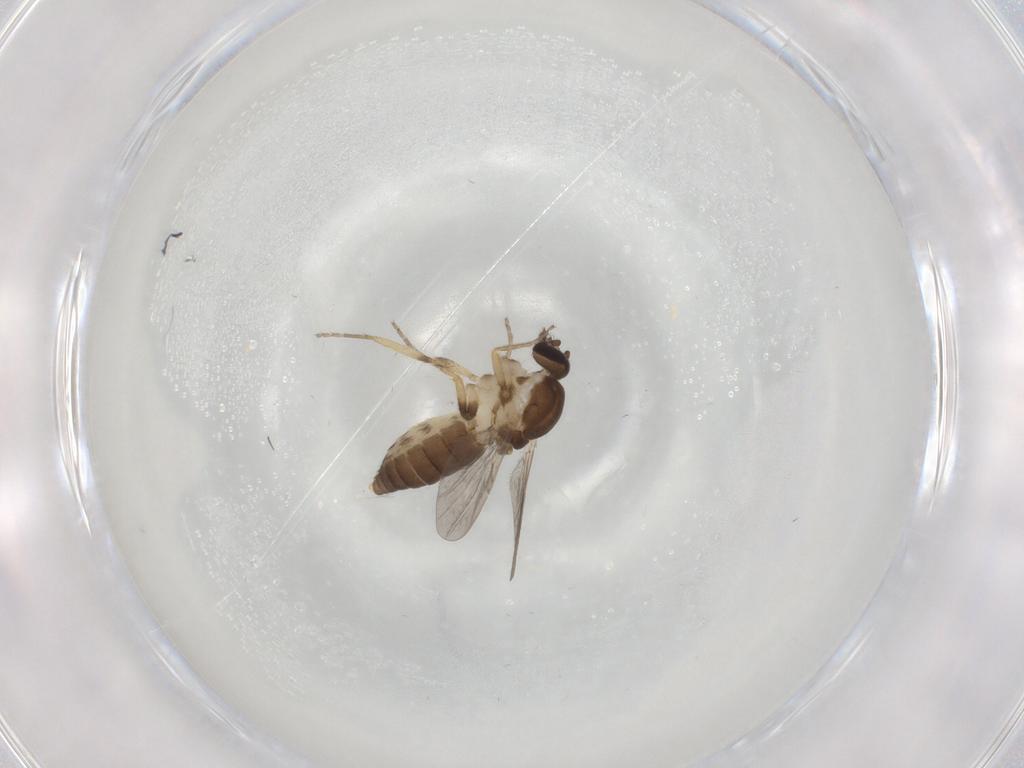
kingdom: Animalia
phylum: Arthropoda
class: Insecta
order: Diptera
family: Ceratopogonidae
